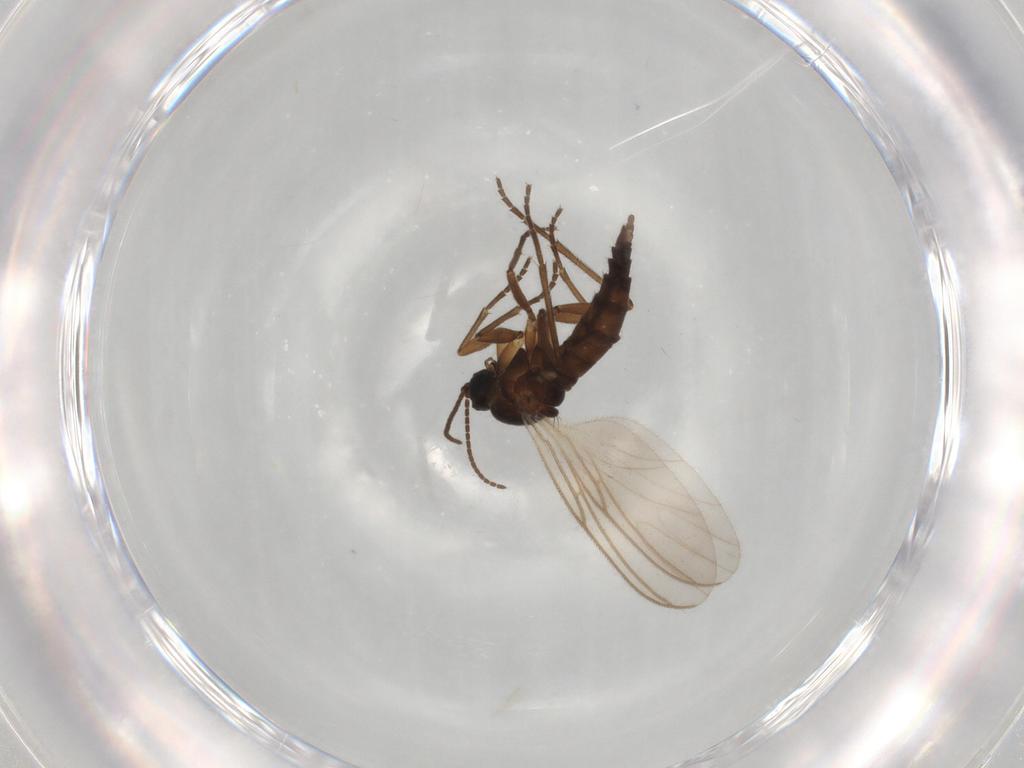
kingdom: Animalia
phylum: Arthropoda
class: Insecta
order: Diptera
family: Sciaridae
